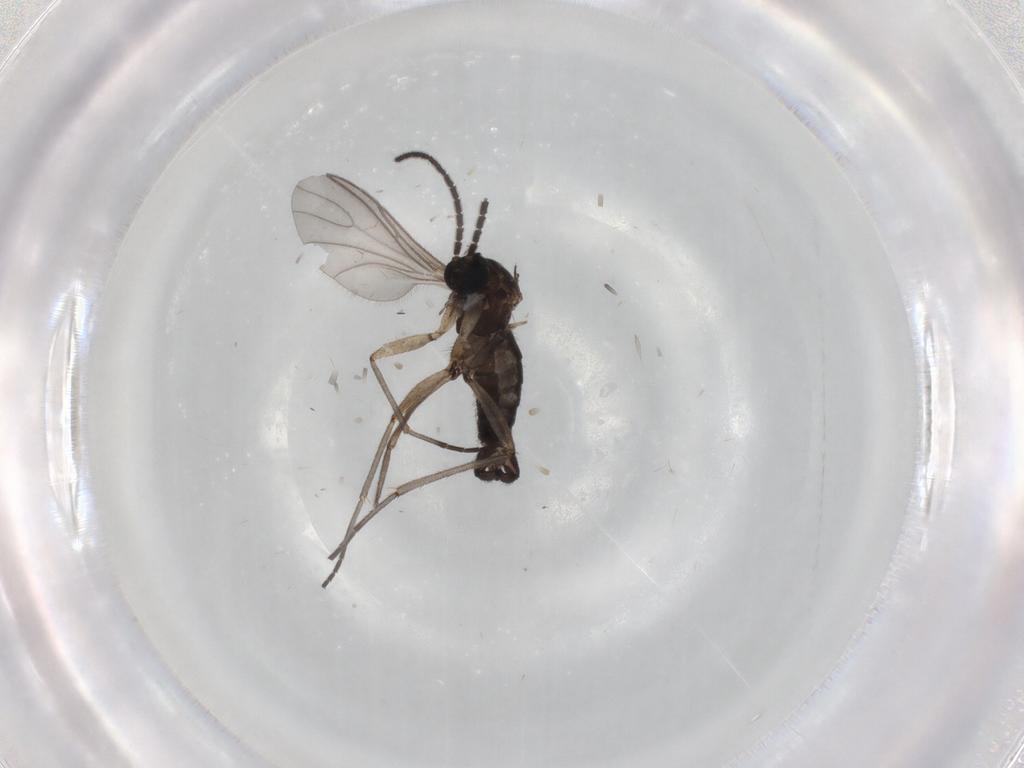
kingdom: Animalia
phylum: Arthropoda
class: Insecta
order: Diptera
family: Sciaridae
